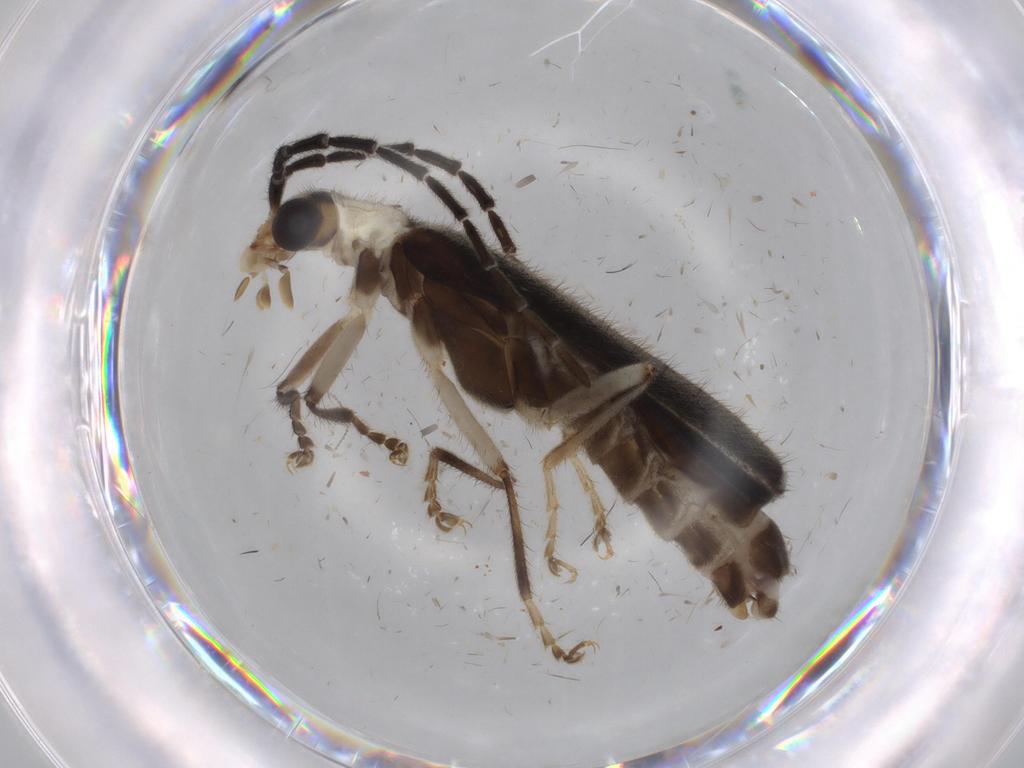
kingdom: Animalia
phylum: Arthropoda
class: Insecta
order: Coleoptera
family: Cantharidae
